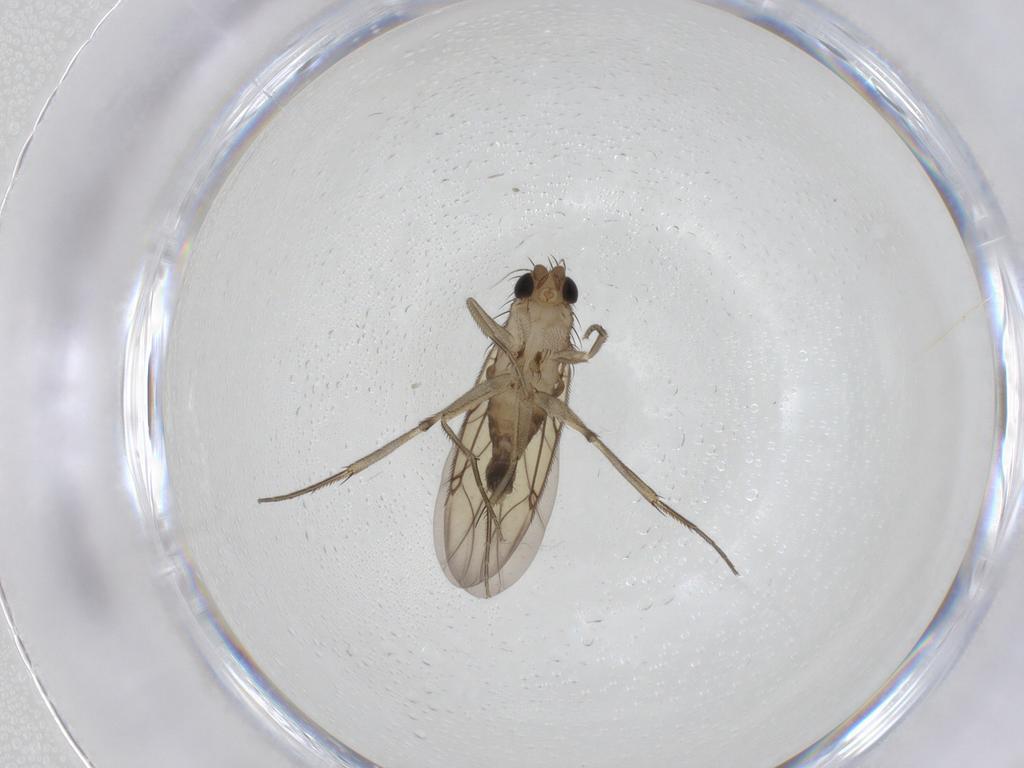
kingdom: Animalia
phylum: Arthropoda
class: Insecta
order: Diptera
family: Phoridae
